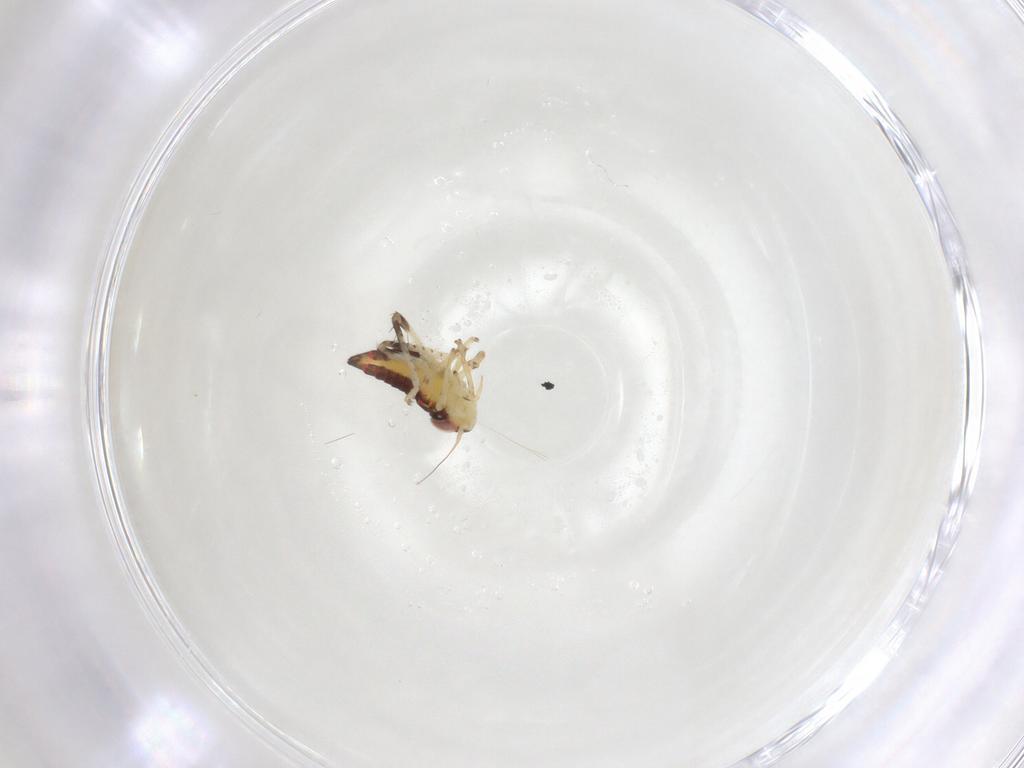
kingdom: Animalia
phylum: Arthropoda
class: Insecta
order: Hemiptera
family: Cicadellidae
